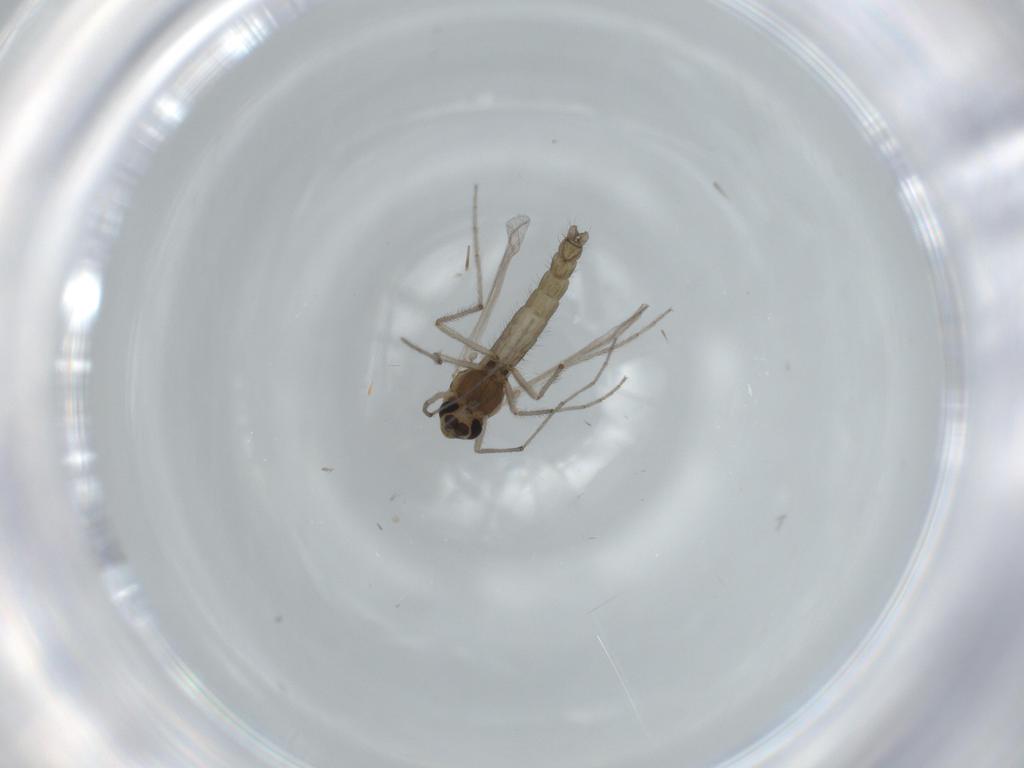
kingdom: Animalia
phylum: Arthropoda
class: Insecta
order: Diptera
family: Chironomidae
